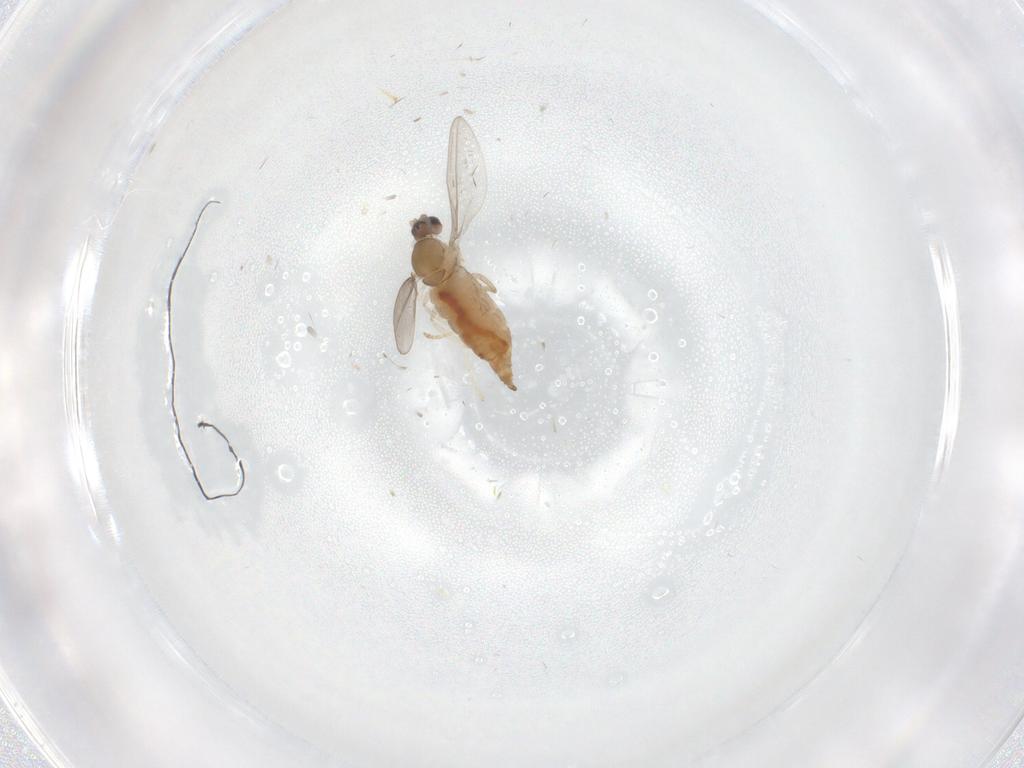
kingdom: Animalia
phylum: Arthropoda
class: Insecta
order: Diptera
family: Cecidomyiidae
